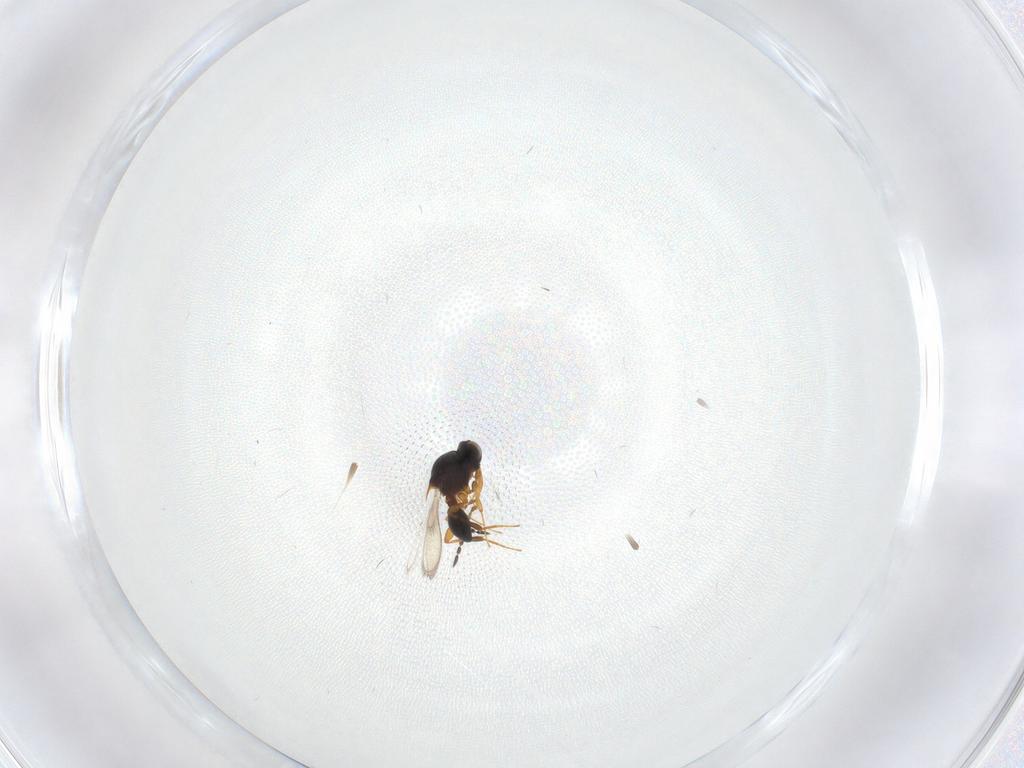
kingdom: Animalia
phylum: Arthropoda
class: Insecta
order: Hymenoptera
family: Platygastridae
